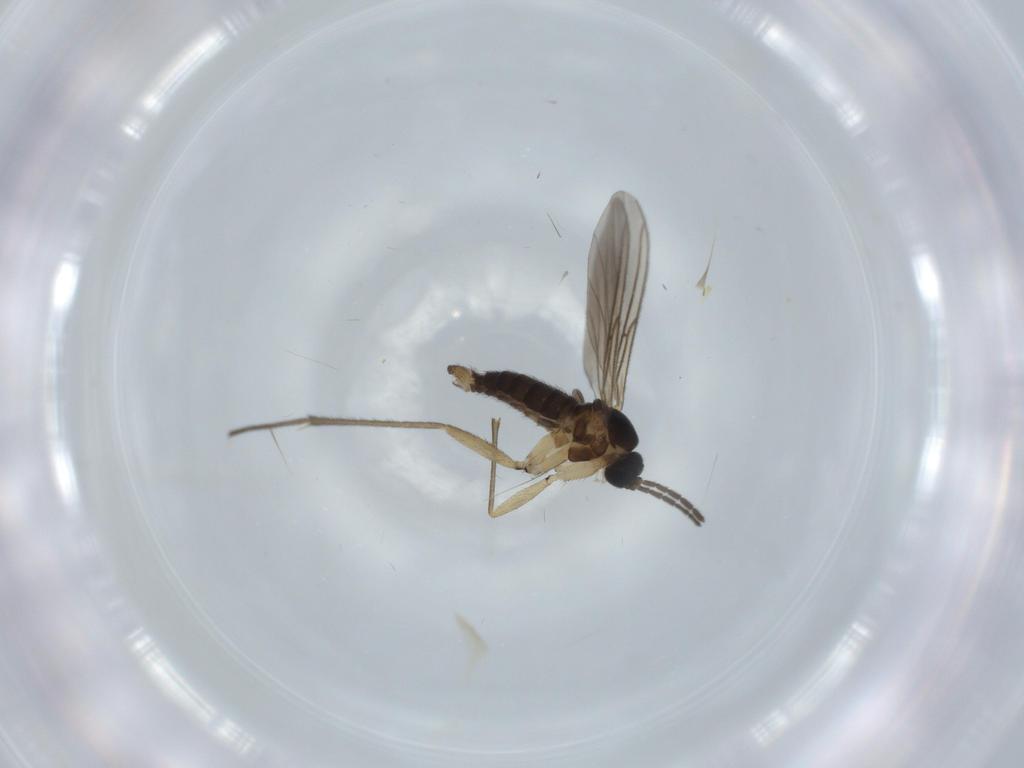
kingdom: Animalia
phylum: Arthropoda
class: Insecta
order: Diptera
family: Sciaridae
